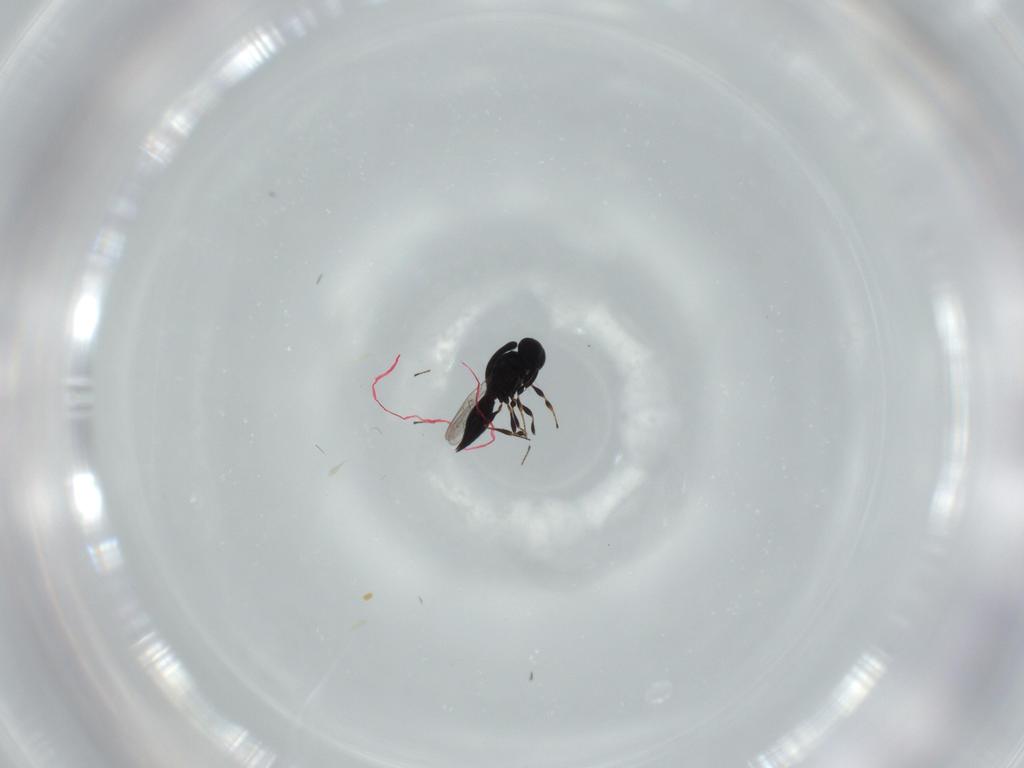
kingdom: Animalia
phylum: Arthropoda
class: Insecta
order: Hymenoptera
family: Platygastridae
